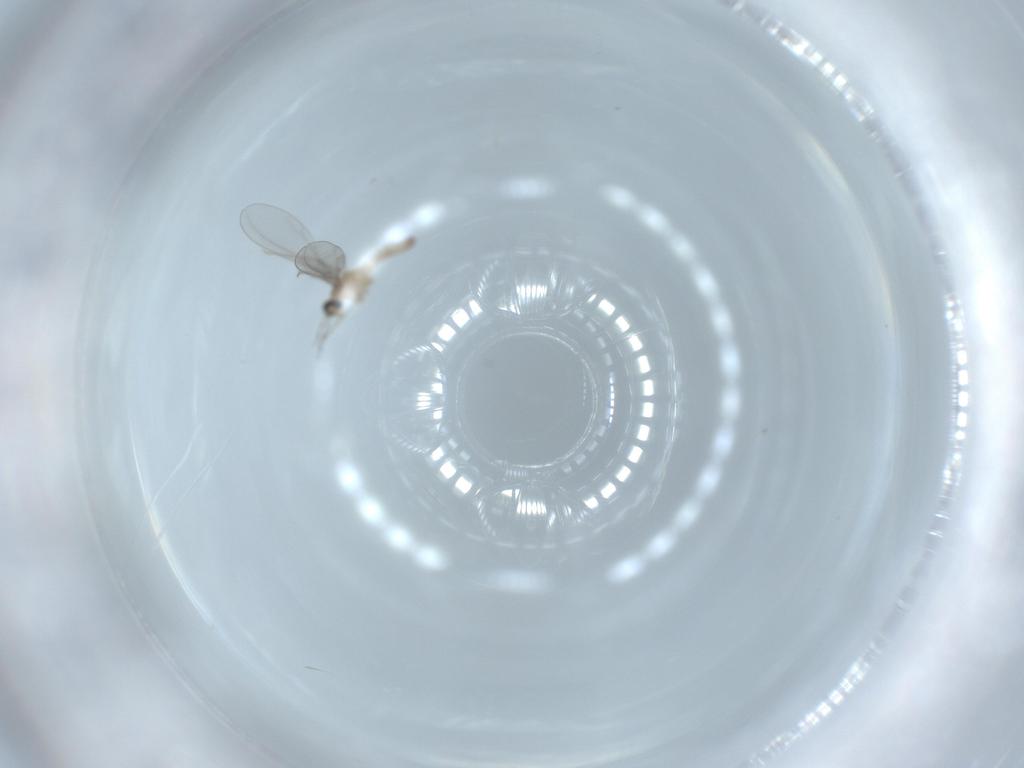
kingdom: Animalia
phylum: Arthropoda
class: Insecta
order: Diptera
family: Cecidomyiidae
